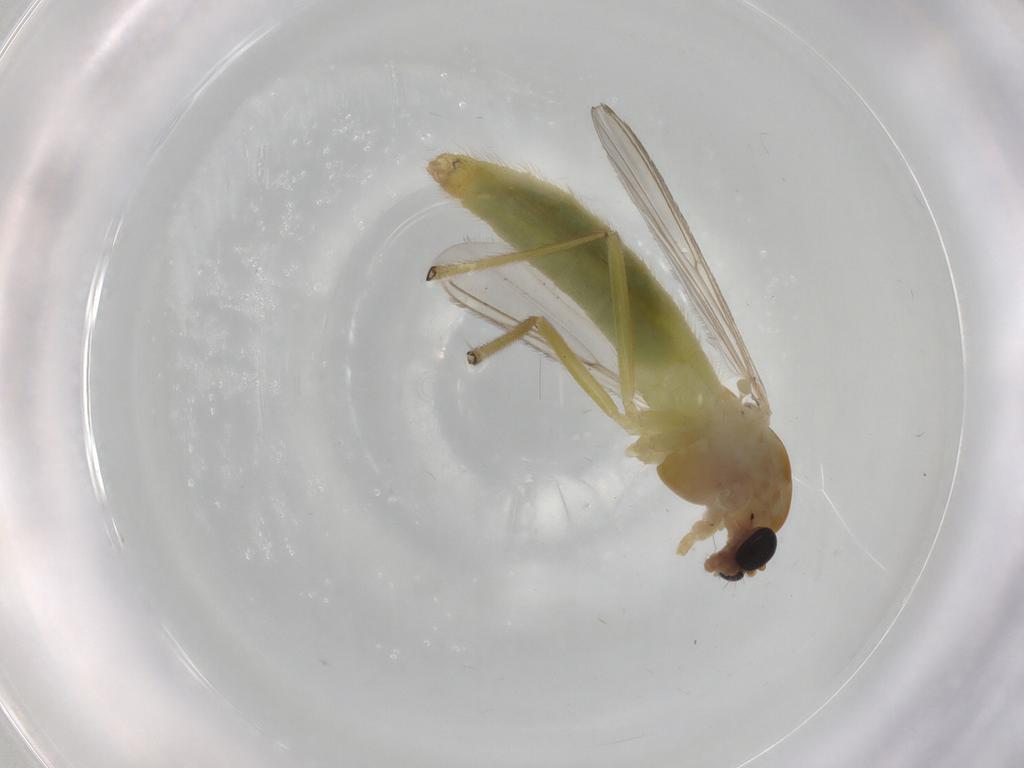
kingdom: Animalia
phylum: Arthropoda
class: Insecta
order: Diptera
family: Chironomidae
